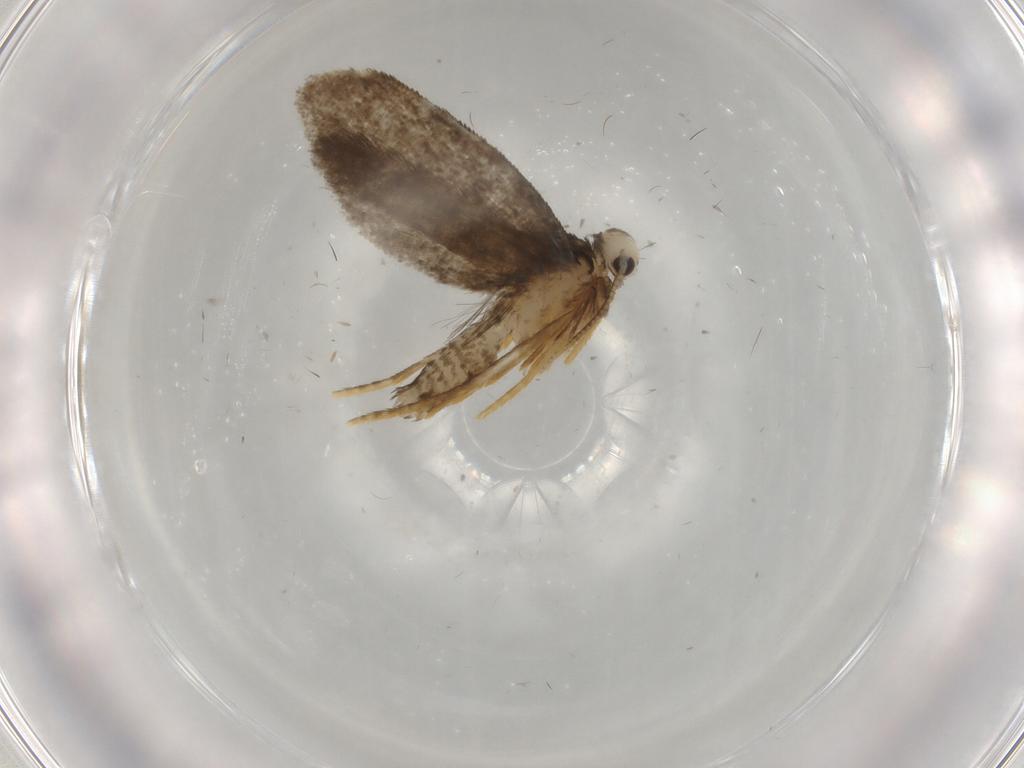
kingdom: Animalia
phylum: Arthropoda
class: Insecta
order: Lepidoptera
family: Psychidae
